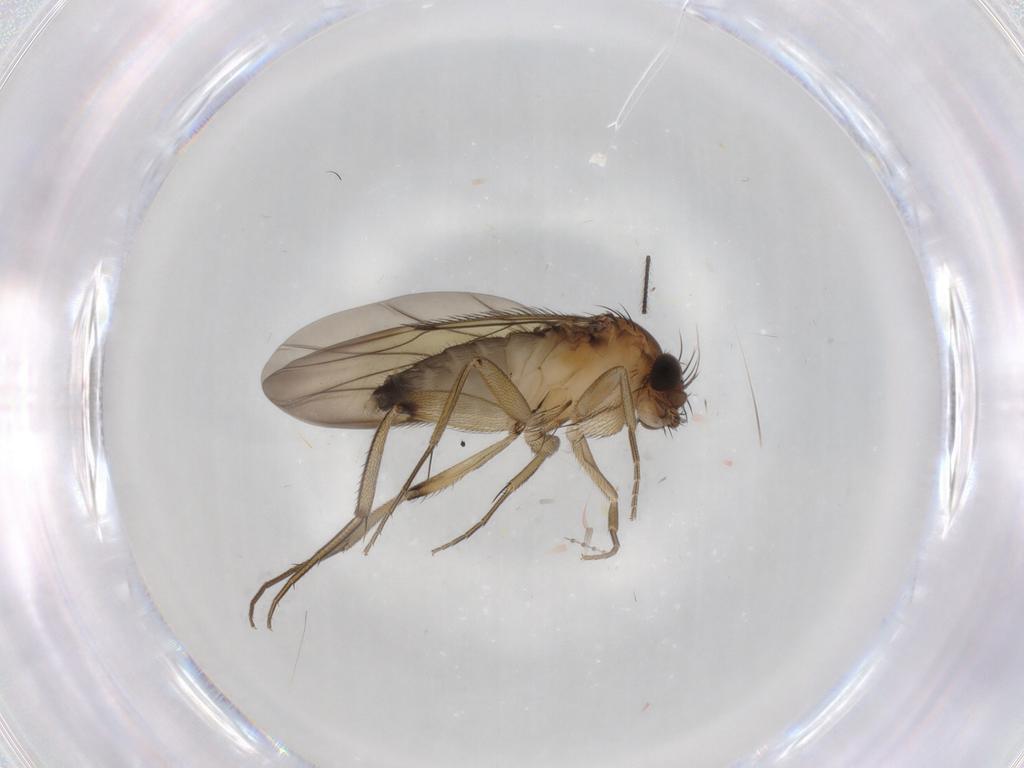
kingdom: Animalia
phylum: Arthropoda
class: Insecta
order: Diptera
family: Phoridae
